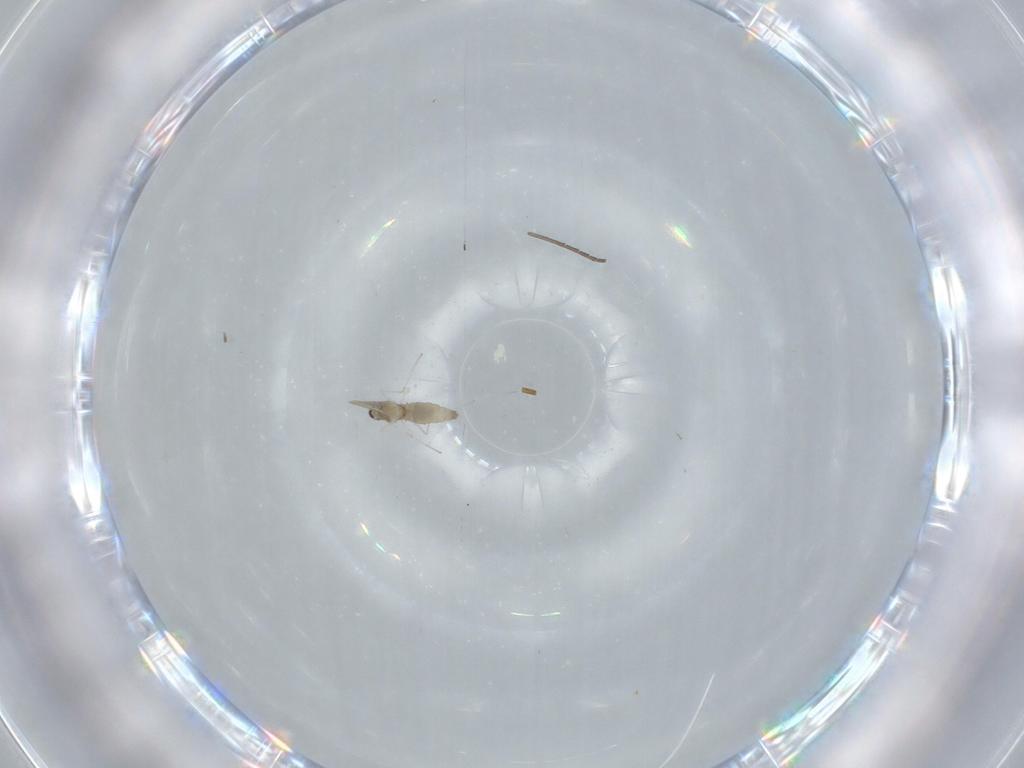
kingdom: Animalia
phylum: Arthropoda
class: Insecta
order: Diptera
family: Cecidomyiidae
